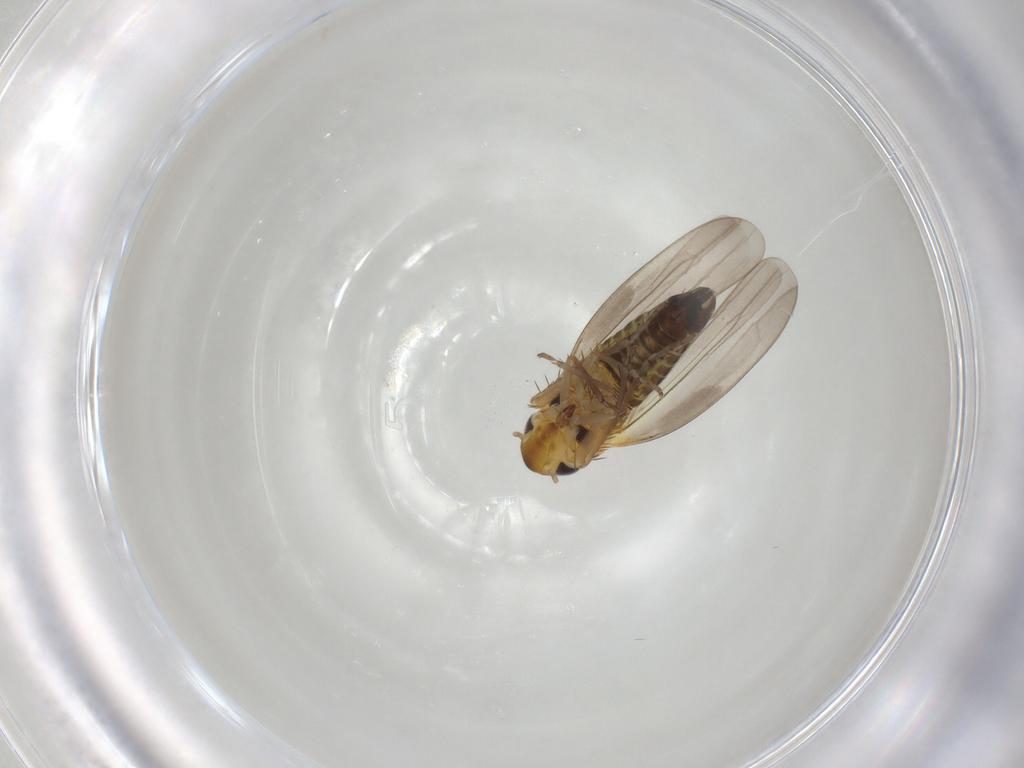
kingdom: Animalia
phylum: Arthropoda
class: Insecta
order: Hemiptera
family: Cicadellidae
